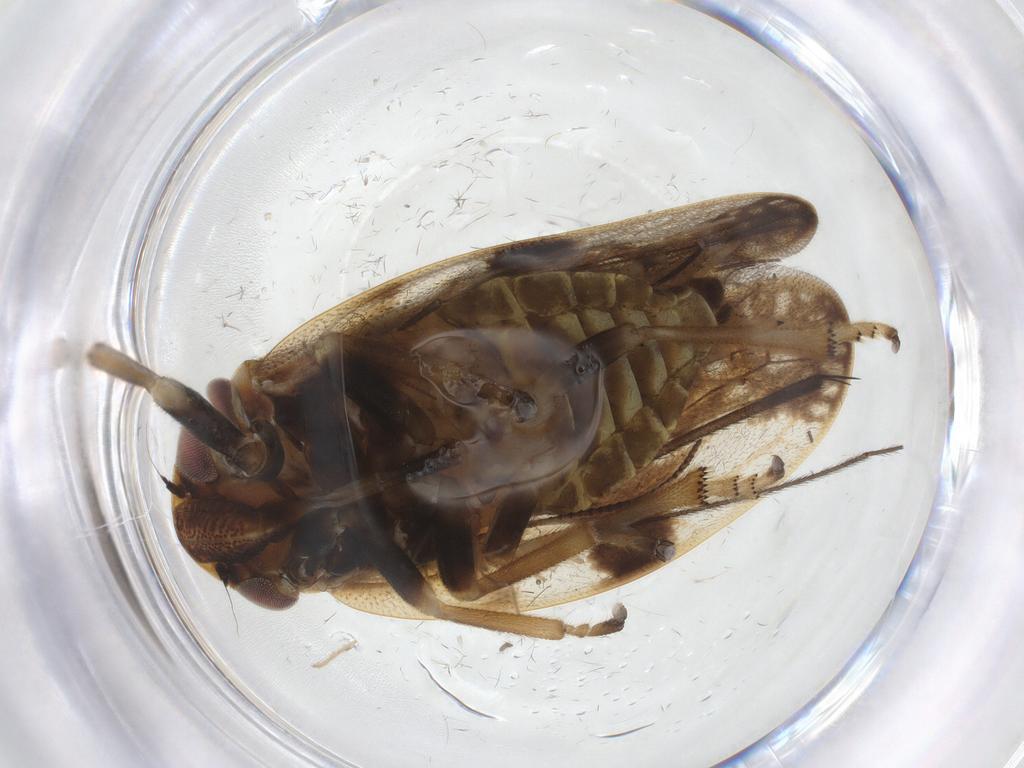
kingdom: Animalia
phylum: Arthropoda
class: Insecta
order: Hemiptera
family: Aphrophoridae
